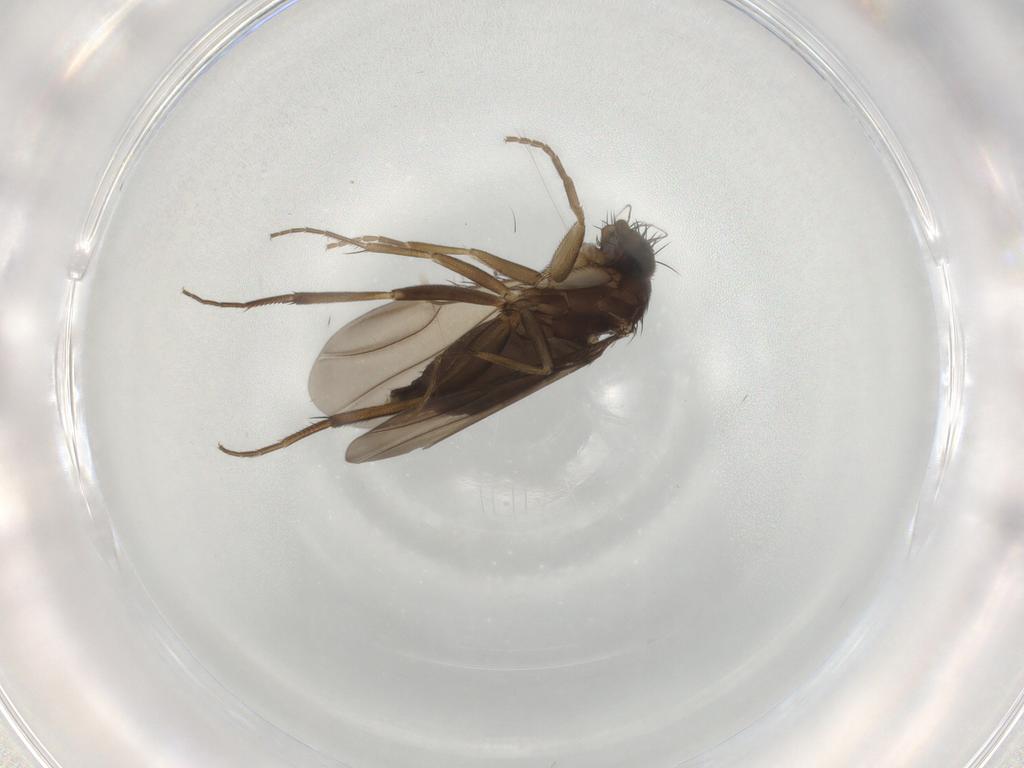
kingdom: Animalia
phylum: Arthropoda
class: Insecta
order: Diptera
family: Phoridae
